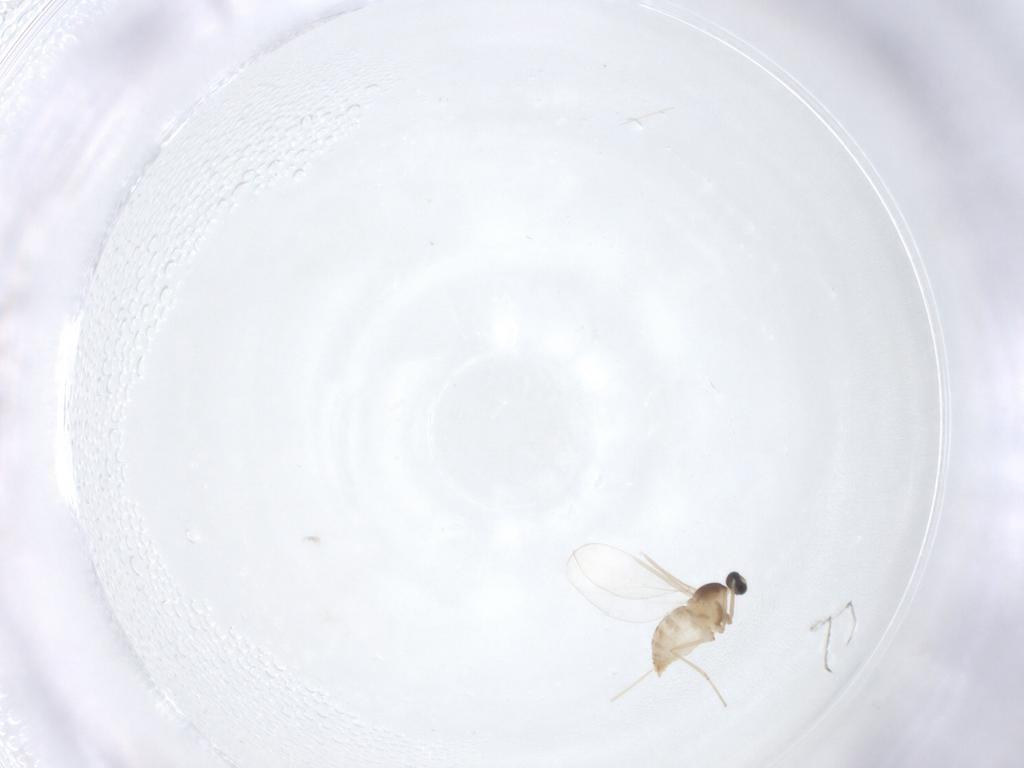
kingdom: Animalia
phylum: Arthropoda
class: Insecta
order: Diptera
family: Cecidomyiidae
